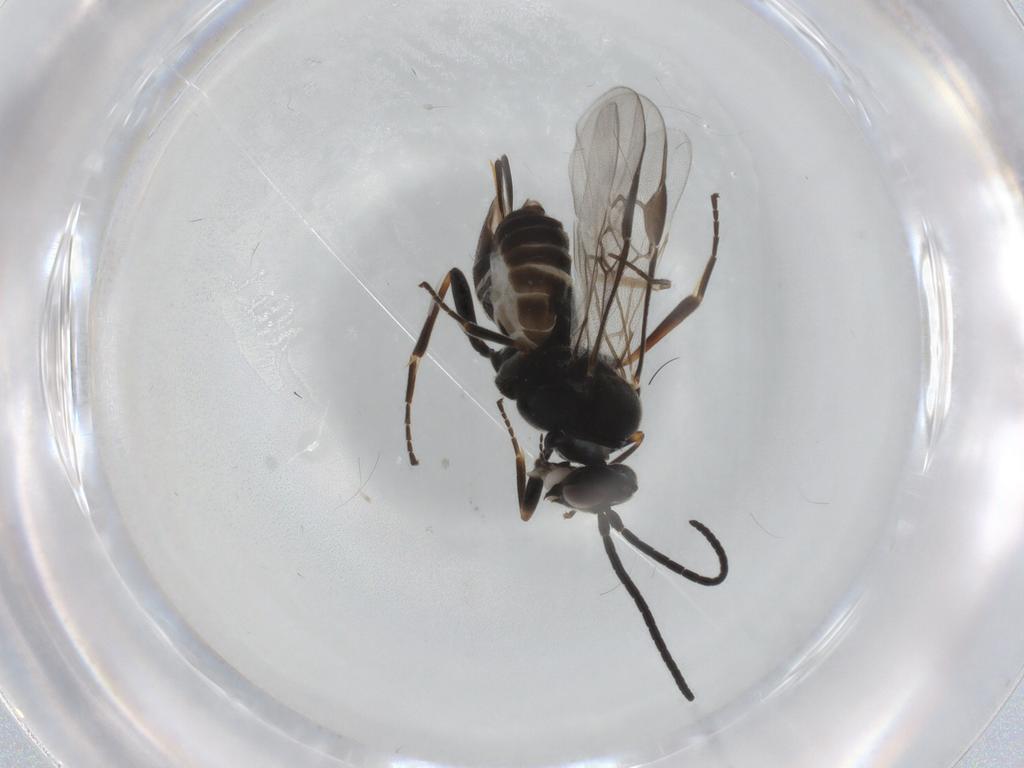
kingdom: Animalia
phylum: Arthropoda
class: Insecta
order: Hymenoptera
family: Braconidae
